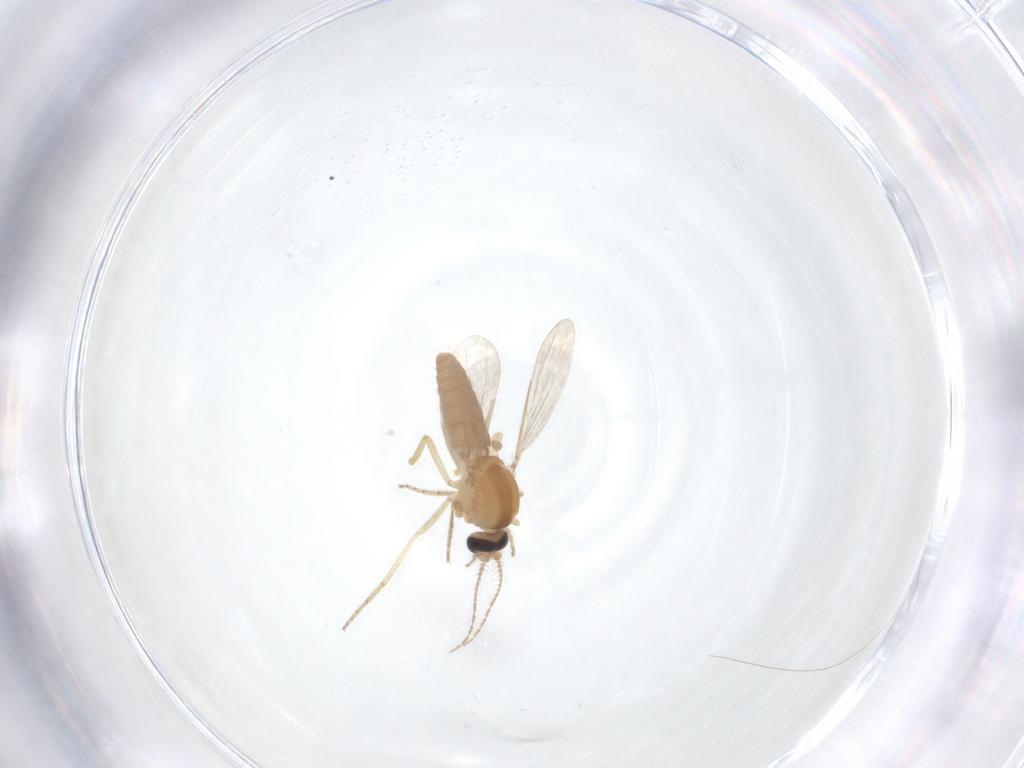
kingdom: Animalia
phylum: Arthropoda
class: Insecta
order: Diptera
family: Ceratopogonidae
